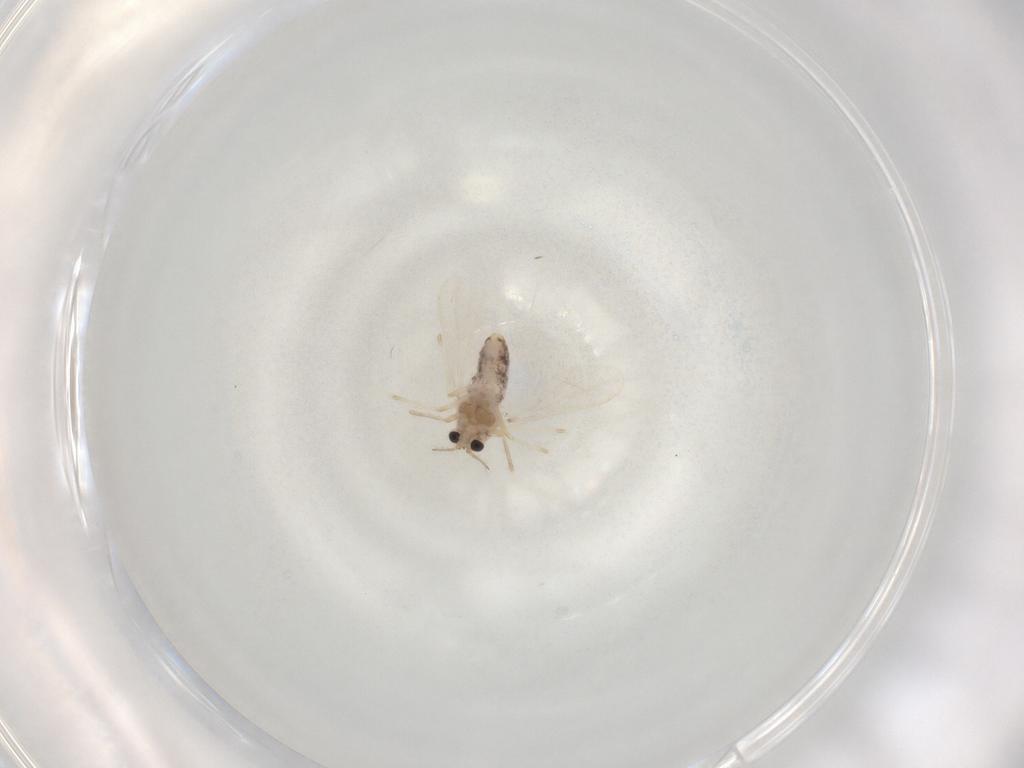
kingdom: Animalia
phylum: Arthropoda
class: Insecta
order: Diptera
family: Chironomidae
